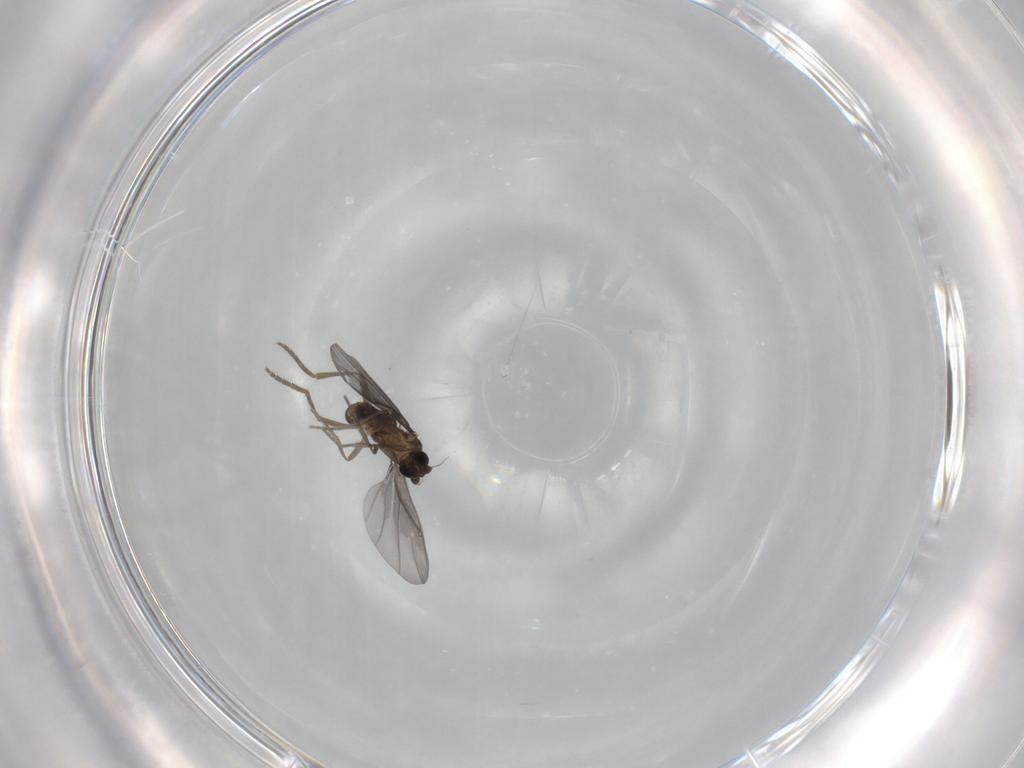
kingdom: Animalia
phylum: Arthropoda
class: Insecta
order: Diptera
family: Phoridae
